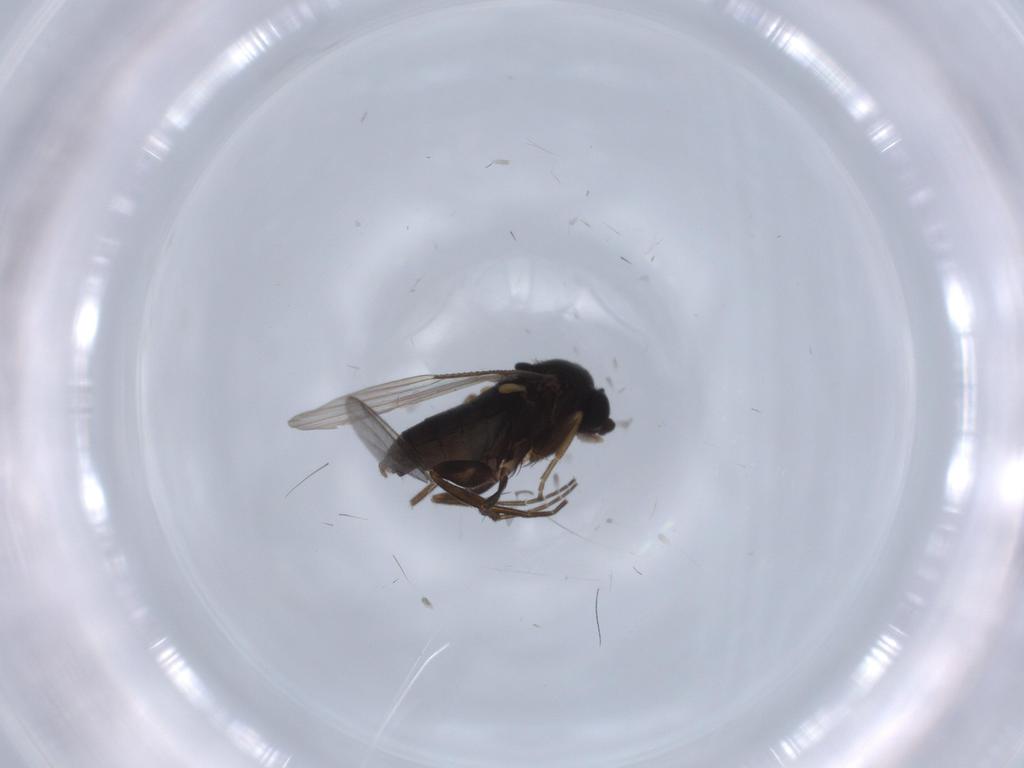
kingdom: Animalia
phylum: Arthropoda
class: Insecta
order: Diptera
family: Phoridae
